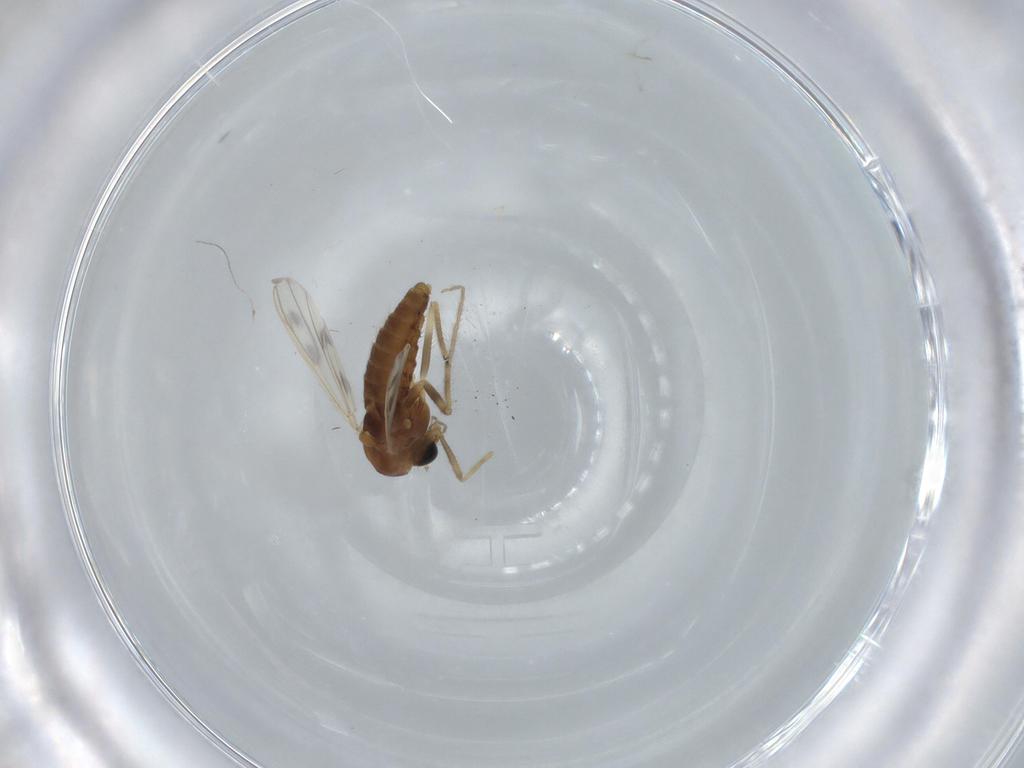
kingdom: Animalia
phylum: Arthropoda
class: Insecta
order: Diptera
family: Chironomidae
